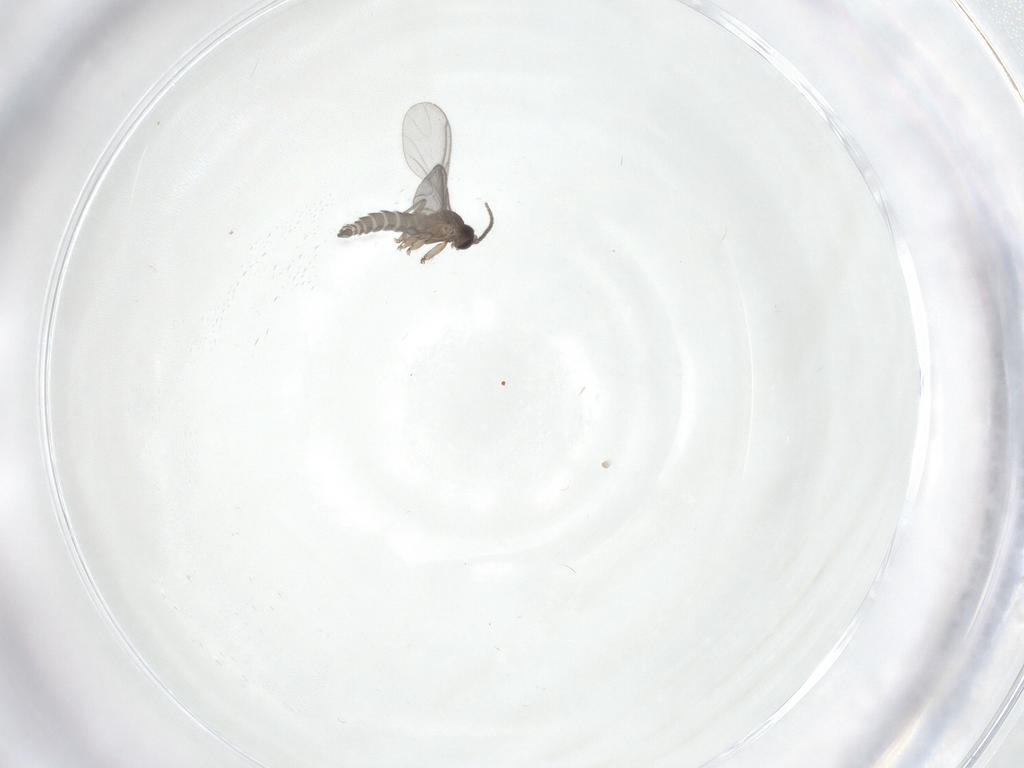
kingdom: Animalia
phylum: Arthropoda
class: Insecta
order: Diptera
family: Sciaridae
